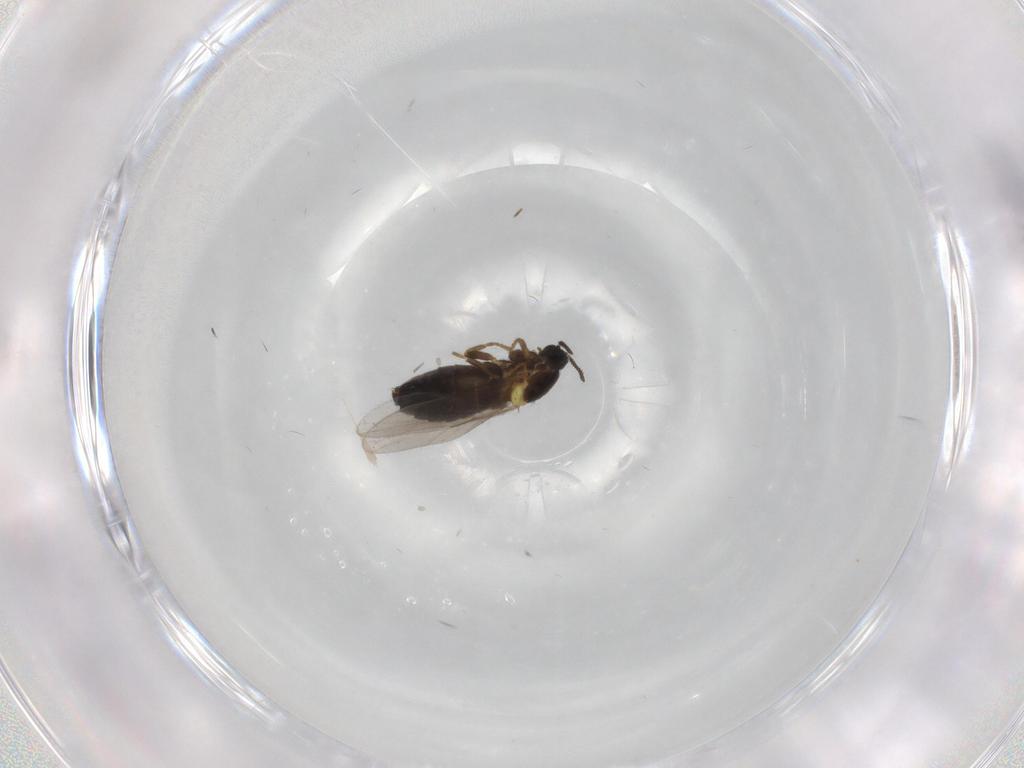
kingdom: Animalia
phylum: Arthropoda
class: Insecta
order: Diptera
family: Scatopsidae
